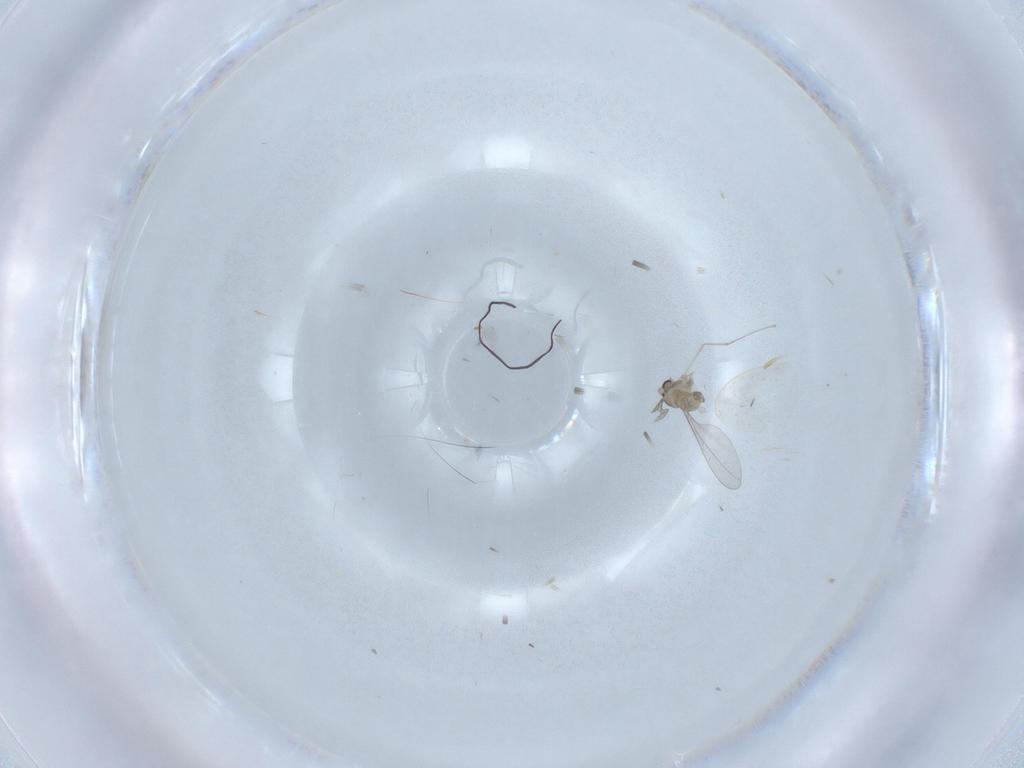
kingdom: Animalia
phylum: Arthropoda
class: Insecta
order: Diptera
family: Cecidomyiidae
